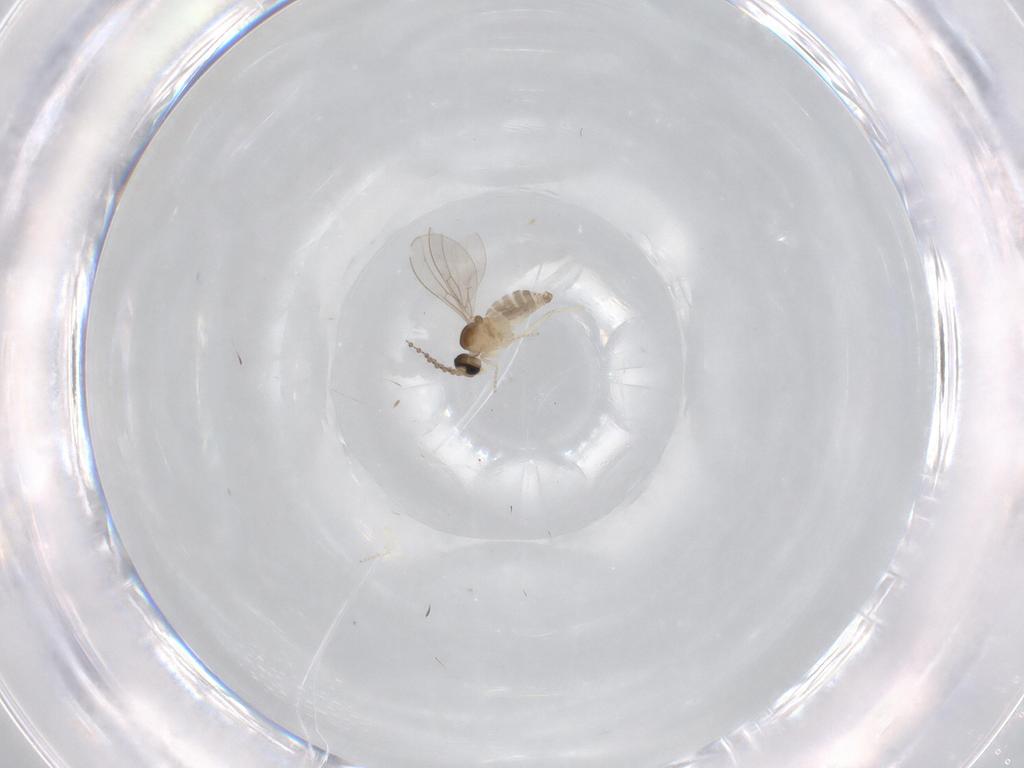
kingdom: Animalia
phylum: Arthropoda
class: Insecta
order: Diptera
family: Cecidomyiidae
